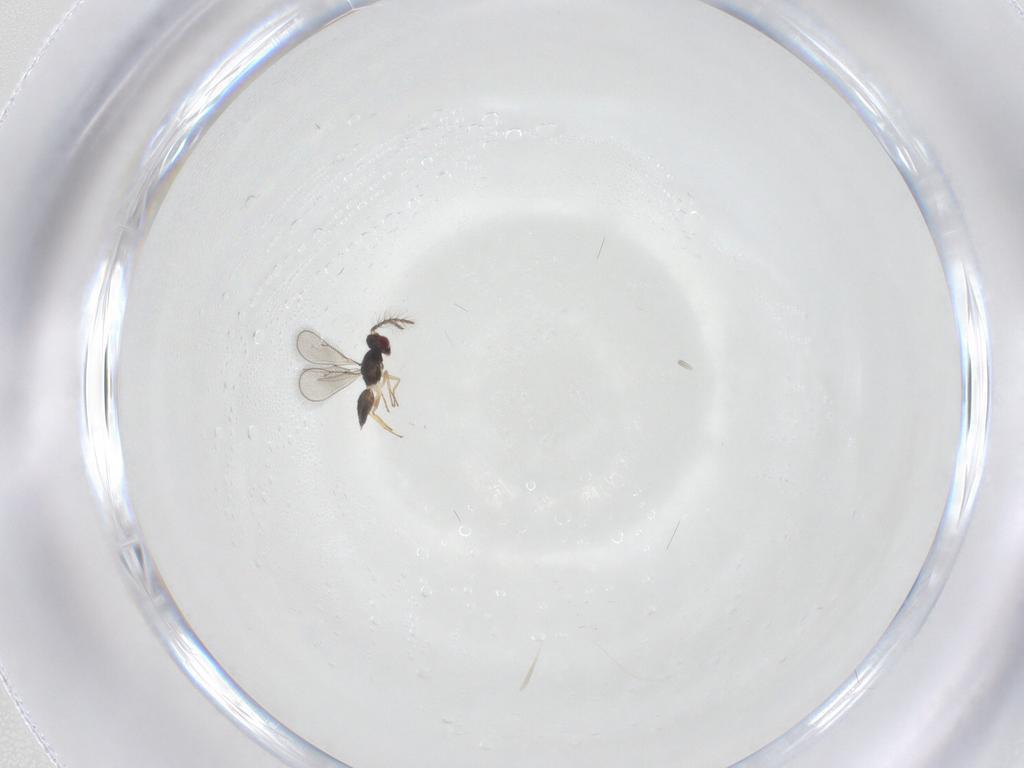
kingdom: Animalia
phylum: Arthropoda
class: Insecta
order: Hymenoptera
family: Eulophidae
